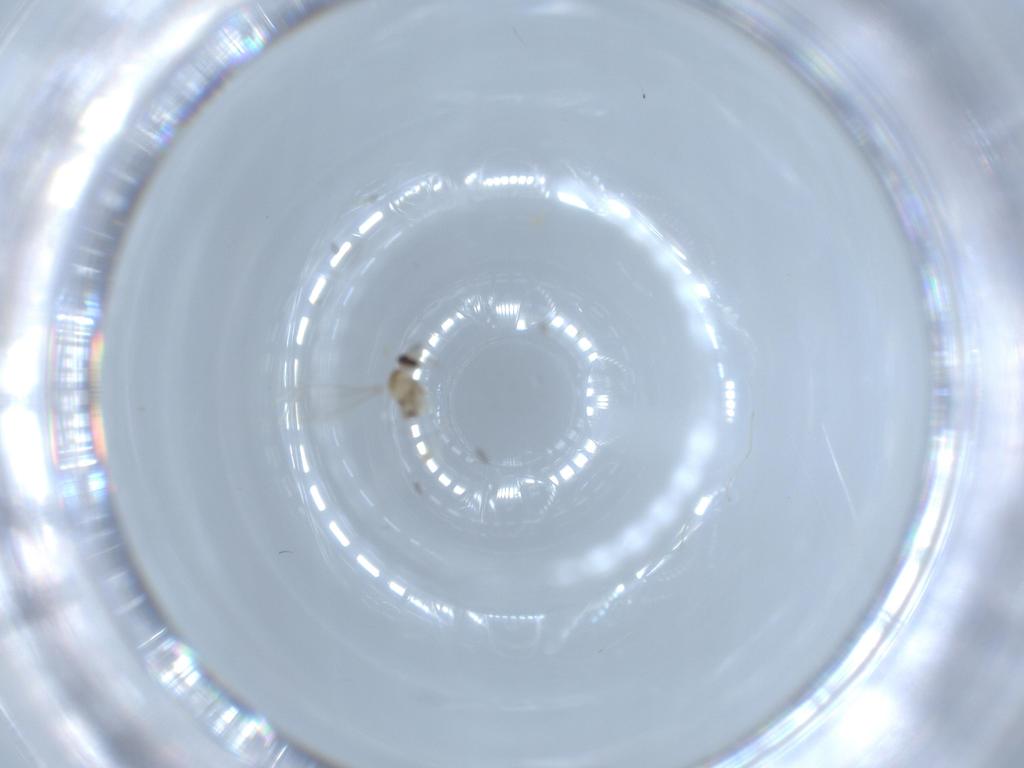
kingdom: Animalia
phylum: Arthropoda
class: Insecta
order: Diptera
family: Cecidomyiidae
